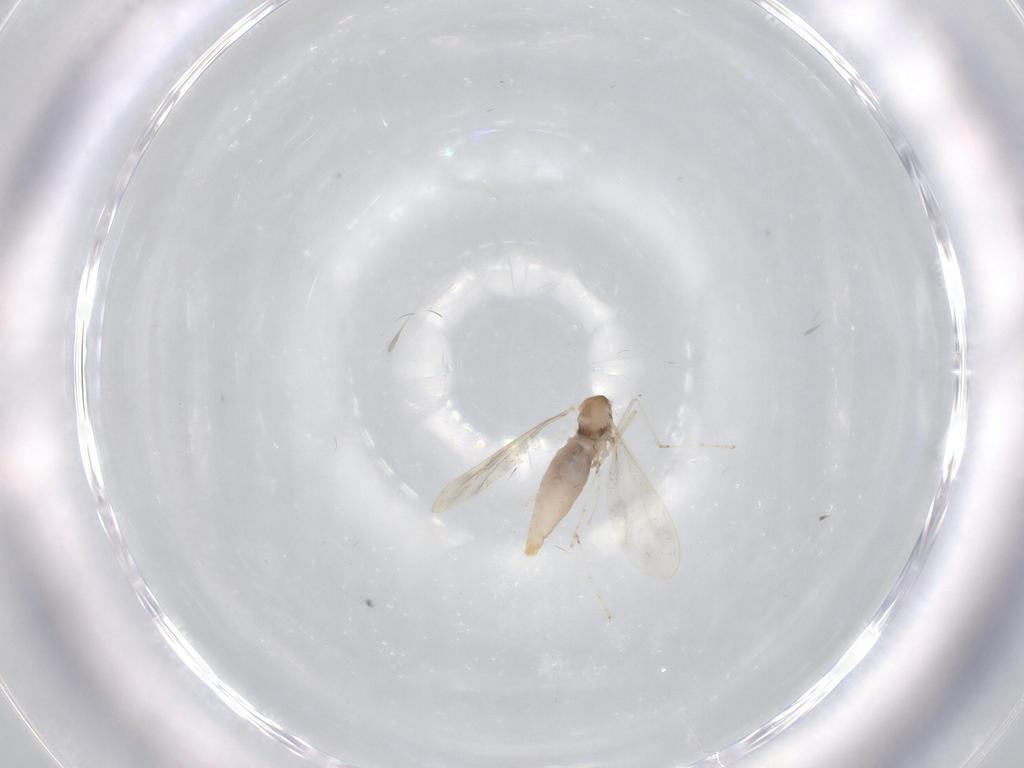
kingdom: Animalia
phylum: Arthropoda
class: Insecta
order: Diptera
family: Cecidomyiidae
